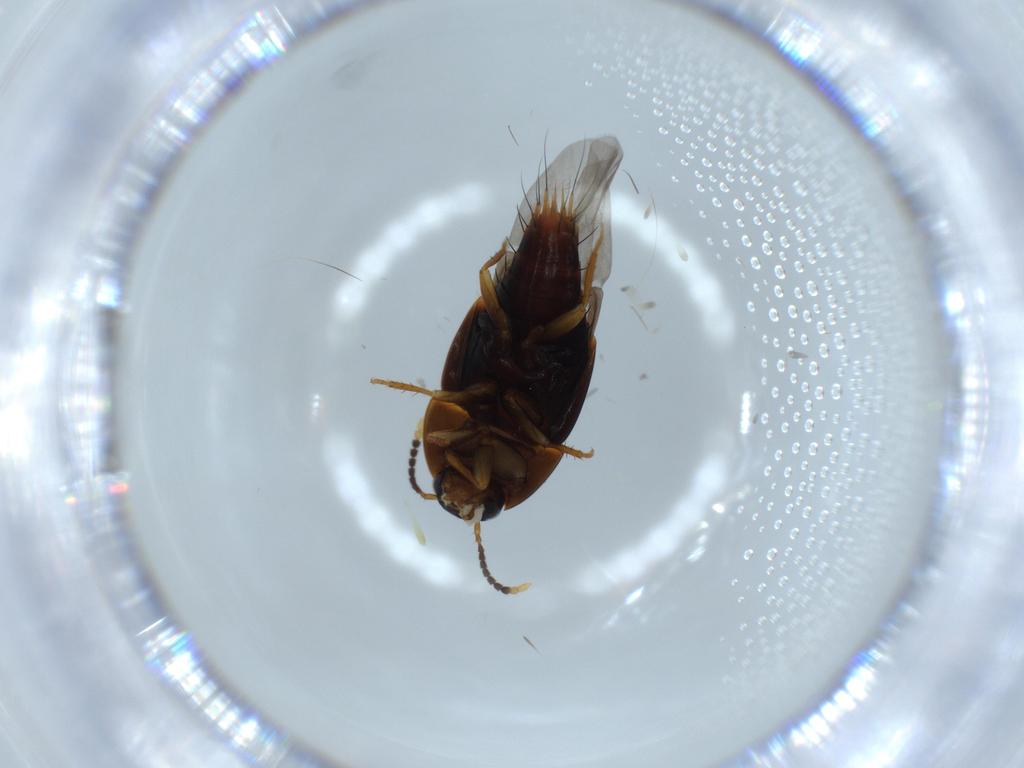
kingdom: Animalia
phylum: Arthropoda
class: Insecta
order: Coleoptera
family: Staphylinidae
